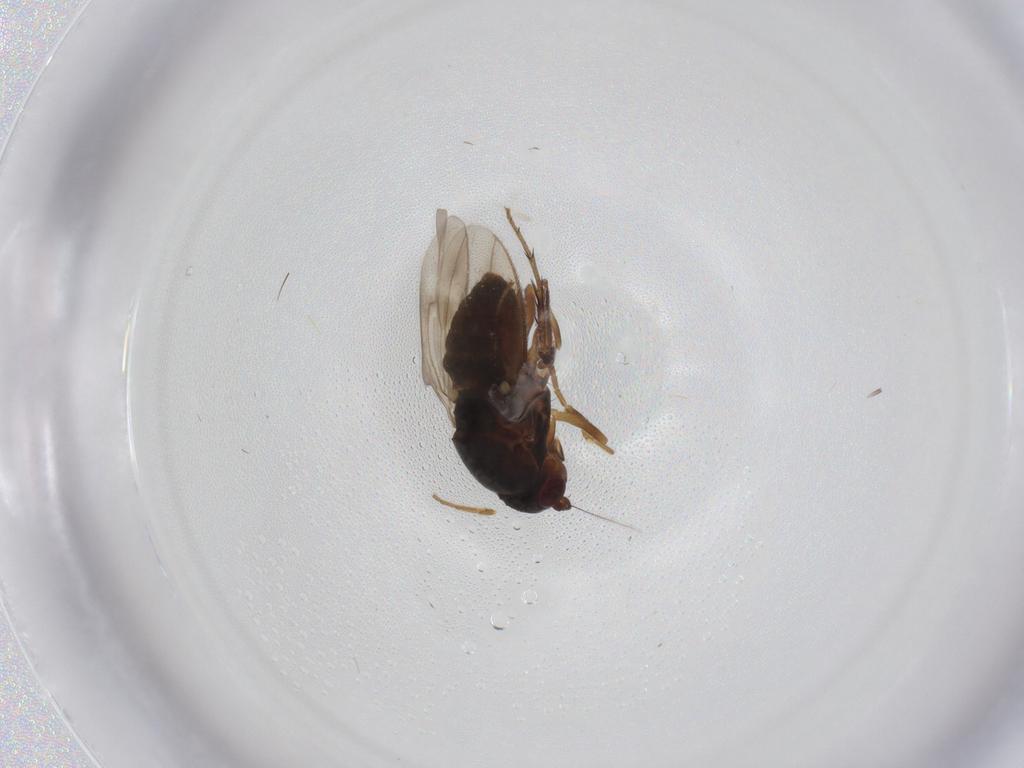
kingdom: Animalia
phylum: Arthropoda
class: Insecta
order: Diptera
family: Sphaeroceridae
